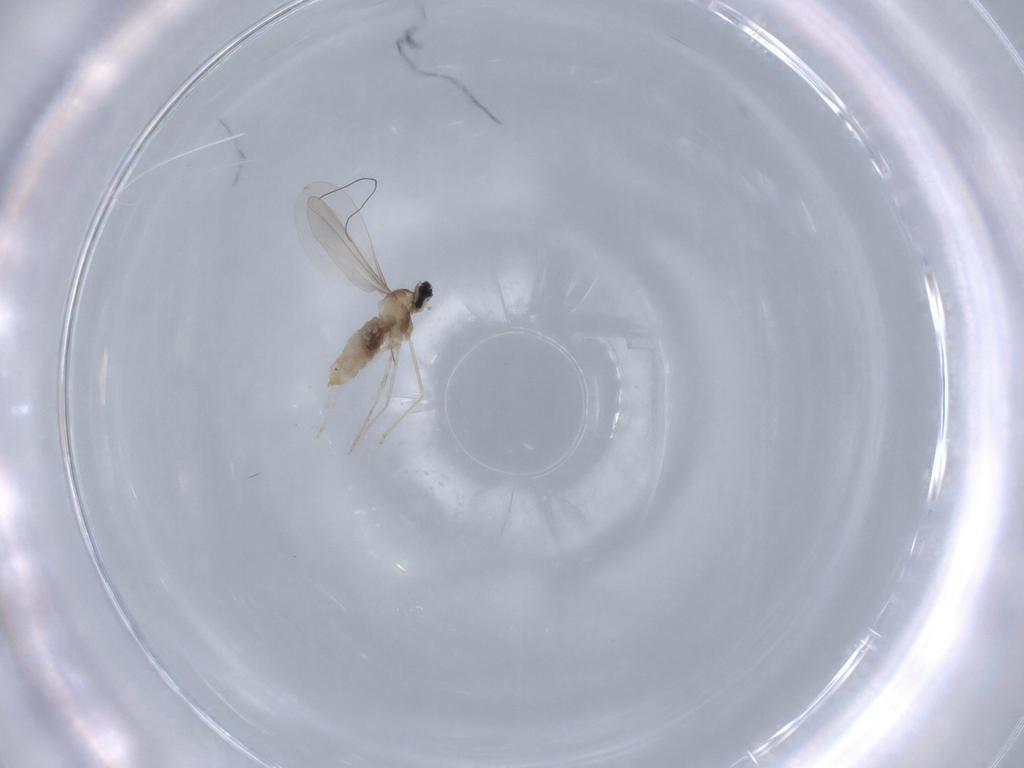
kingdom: Animalia
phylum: Arthropoda
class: Insecta
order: Diptera
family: Cecidomyiidae
